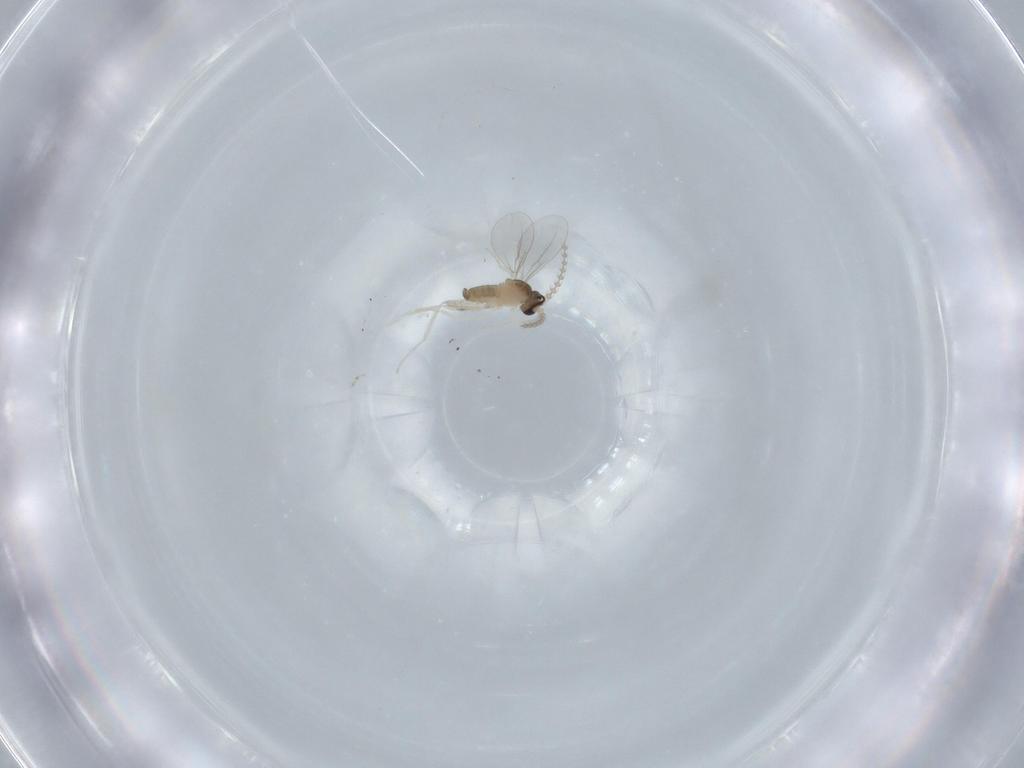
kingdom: Animalia
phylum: Arthropoda
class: Insecta
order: Diptera
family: Cecidomyiidae
